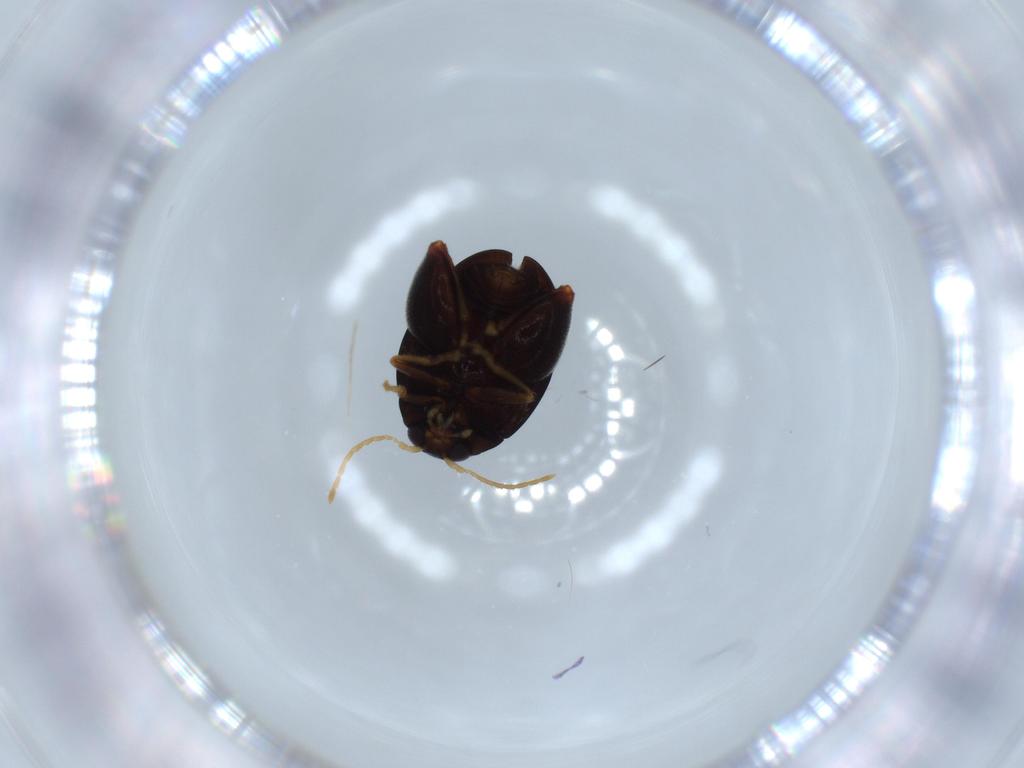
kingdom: Animalia
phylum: Arthropoda
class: Insecta
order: Coleoptera
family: Chrysomelidae
